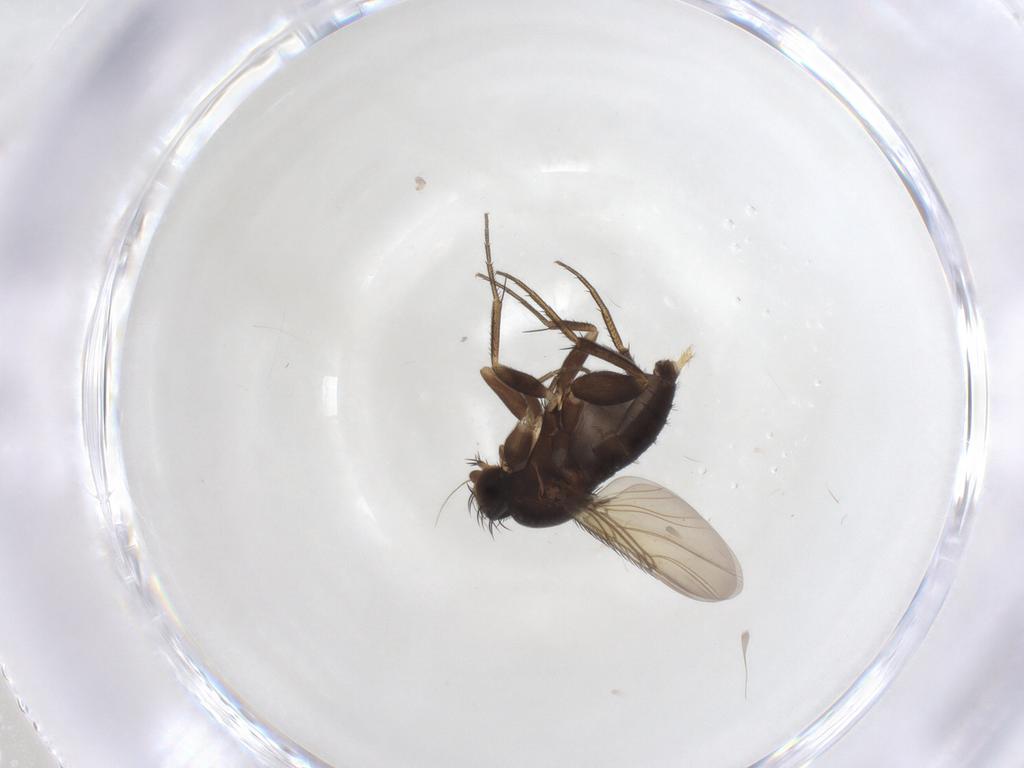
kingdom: Animalia
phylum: Arthropoda
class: Insecta
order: Diptera
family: Phoridae
